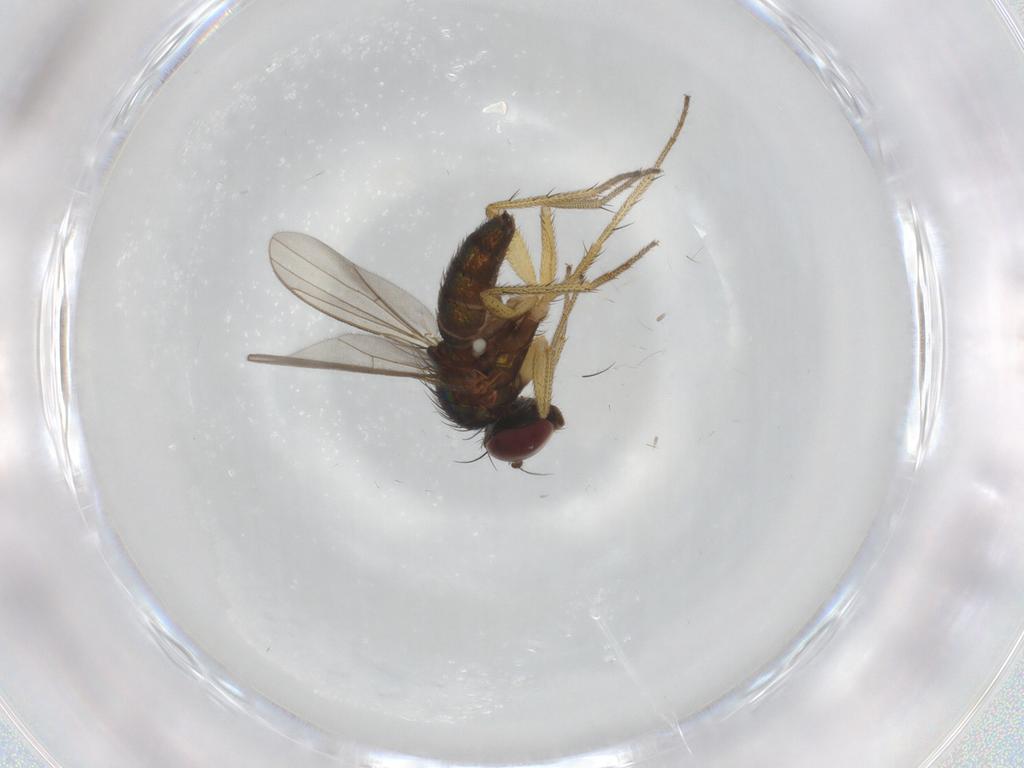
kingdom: Animalia
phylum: Arthropoda
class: Insecta
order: Diptera
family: Dolichopodidae
